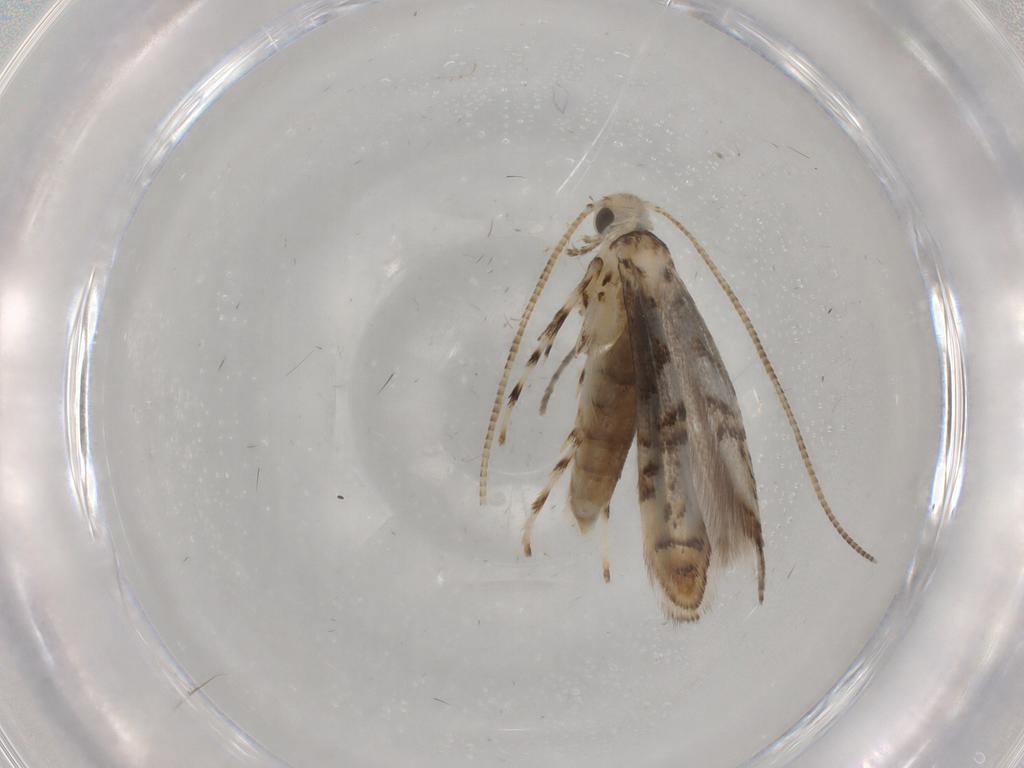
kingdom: Animalia
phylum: Arthropoda
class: Insecta
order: Lepidoptera
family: Gracillariidae
